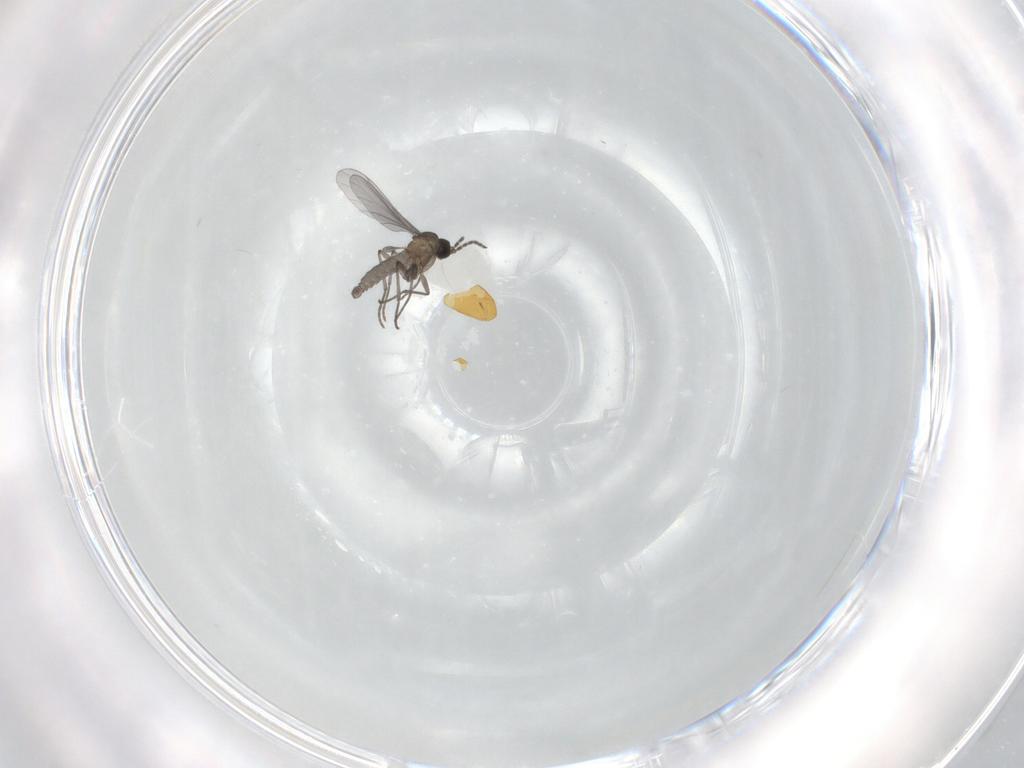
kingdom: Animalia
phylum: Arthropoda
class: Insecta
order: Diptera
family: Dolichopodidae
